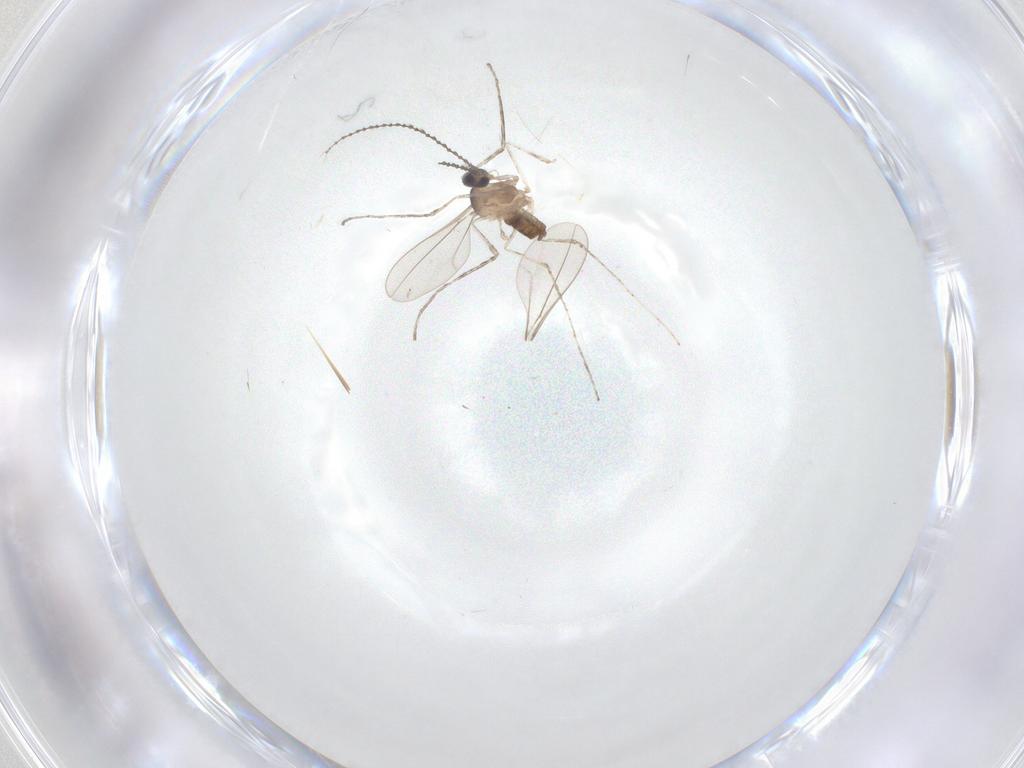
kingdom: Animalia
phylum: Arthropoda
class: Insecta
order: Diptera
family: Cecidomyiidae
